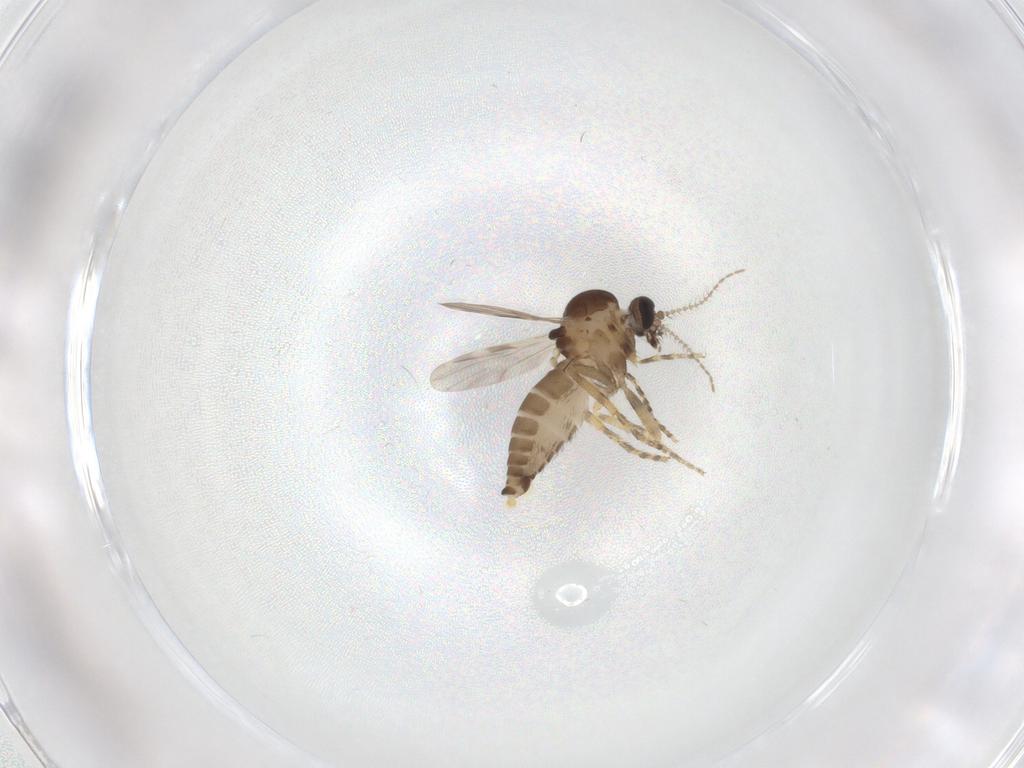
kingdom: Animalia
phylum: Arthropoda
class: Insecta
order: Diptera
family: Ceratopogonidae
